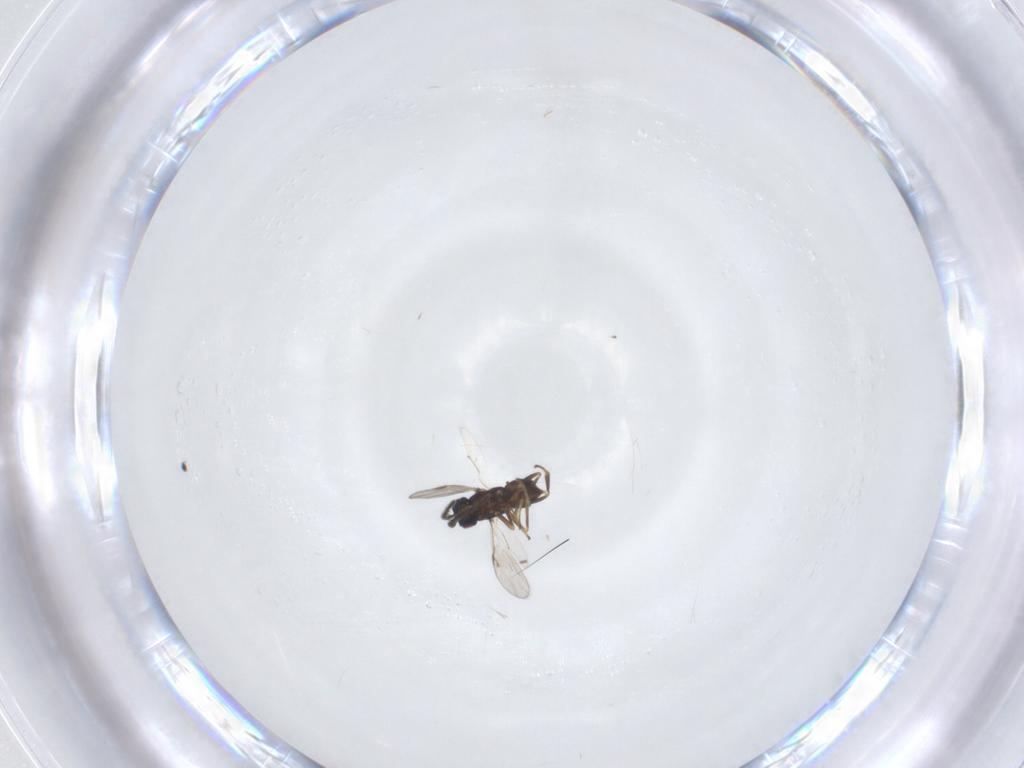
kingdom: Animalia
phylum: Arthropoda
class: Insecta
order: Hymenoptera
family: Encyrtidae
